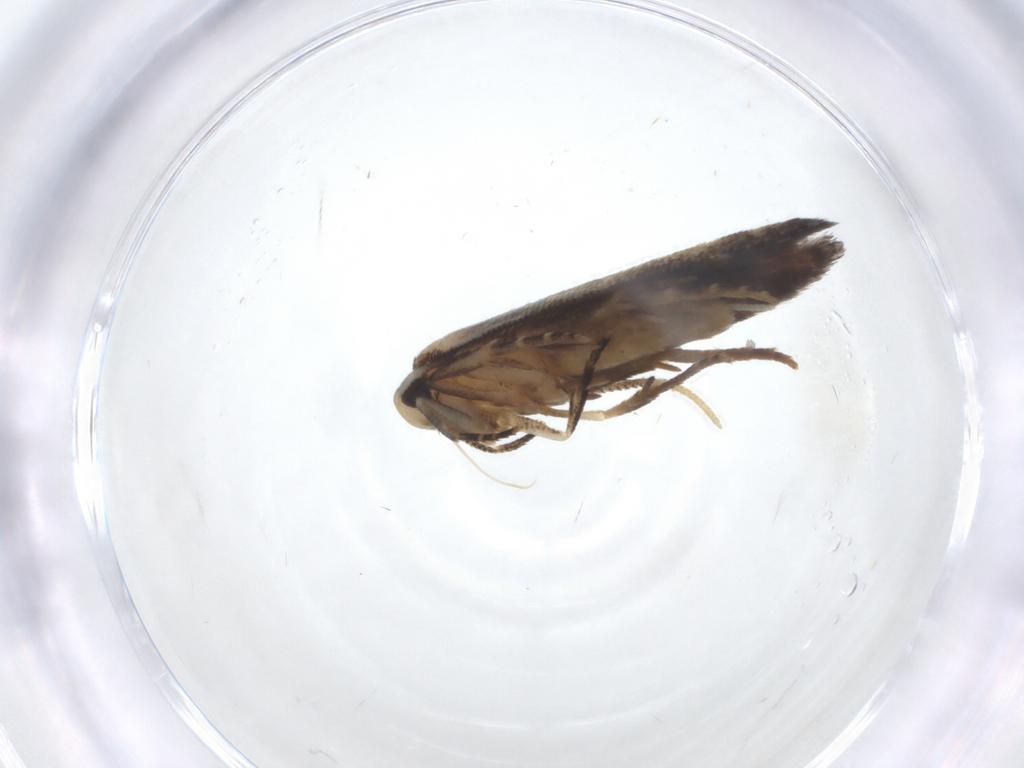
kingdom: Animalia
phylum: Arthropoda
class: Insecta
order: Lepidoptera
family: Cosmopterigidae
